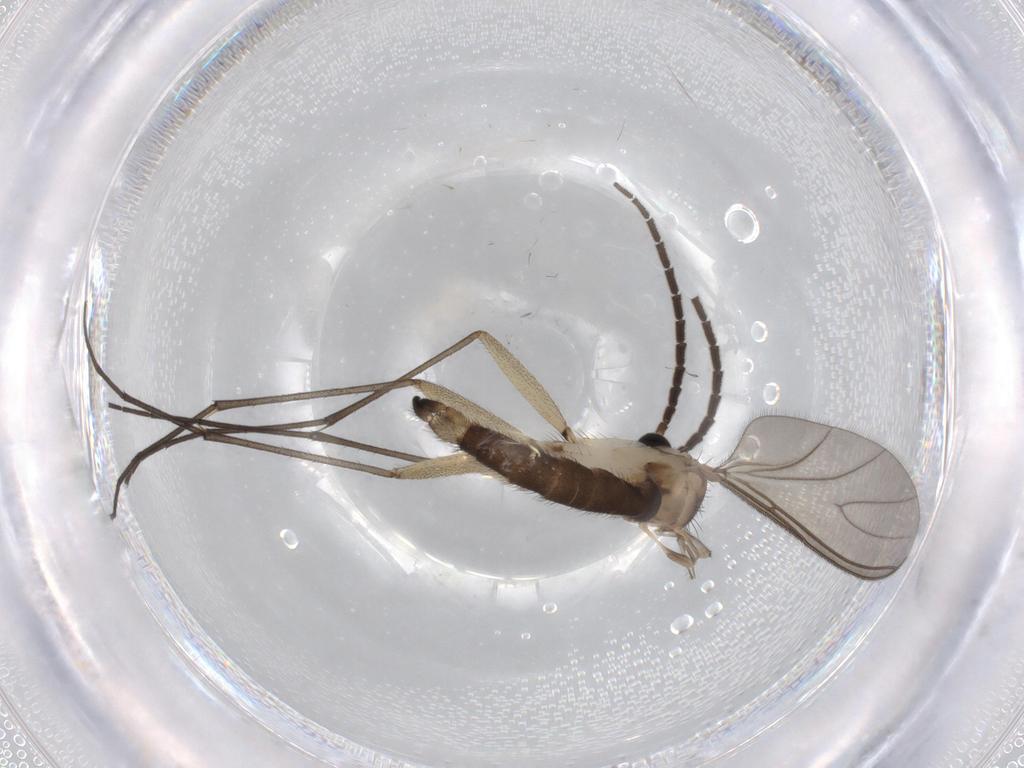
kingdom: Animalia
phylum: Arthropoda
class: Insecta
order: Diptera
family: Sciaridae
